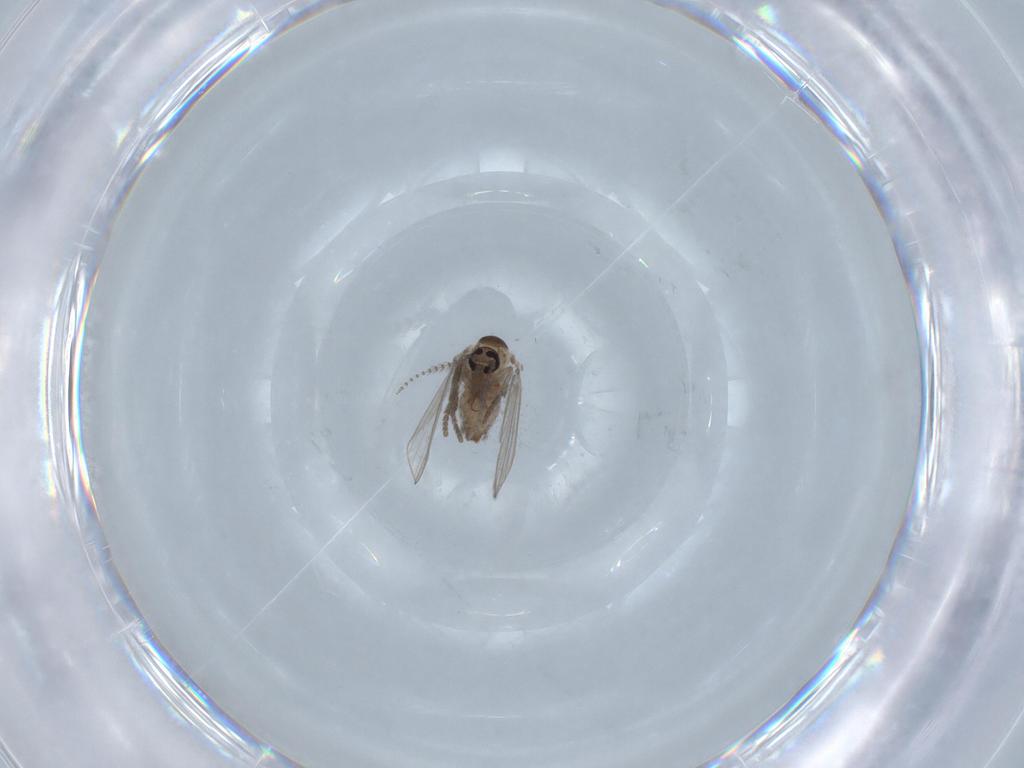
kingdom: Animalia
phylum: Arthropoda
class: Insecta
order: Diptera
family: Psychodidae
